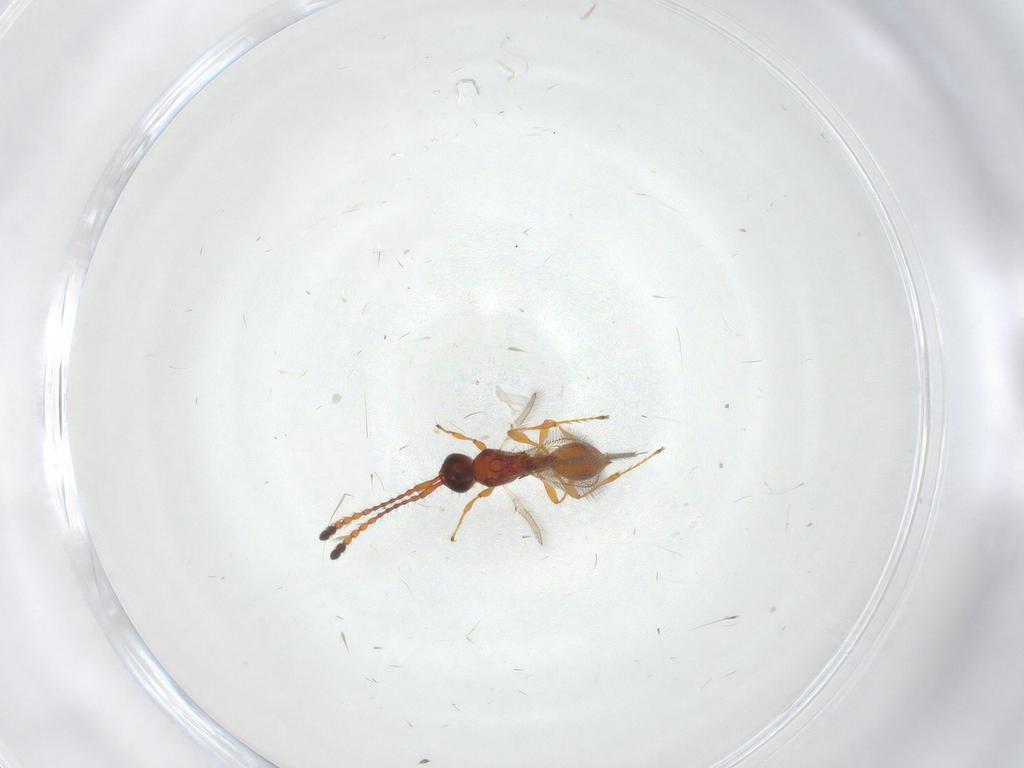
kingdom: Animalia
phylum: Arthropoda
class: Insecta
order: Hymenoptera
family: Diapriidae
